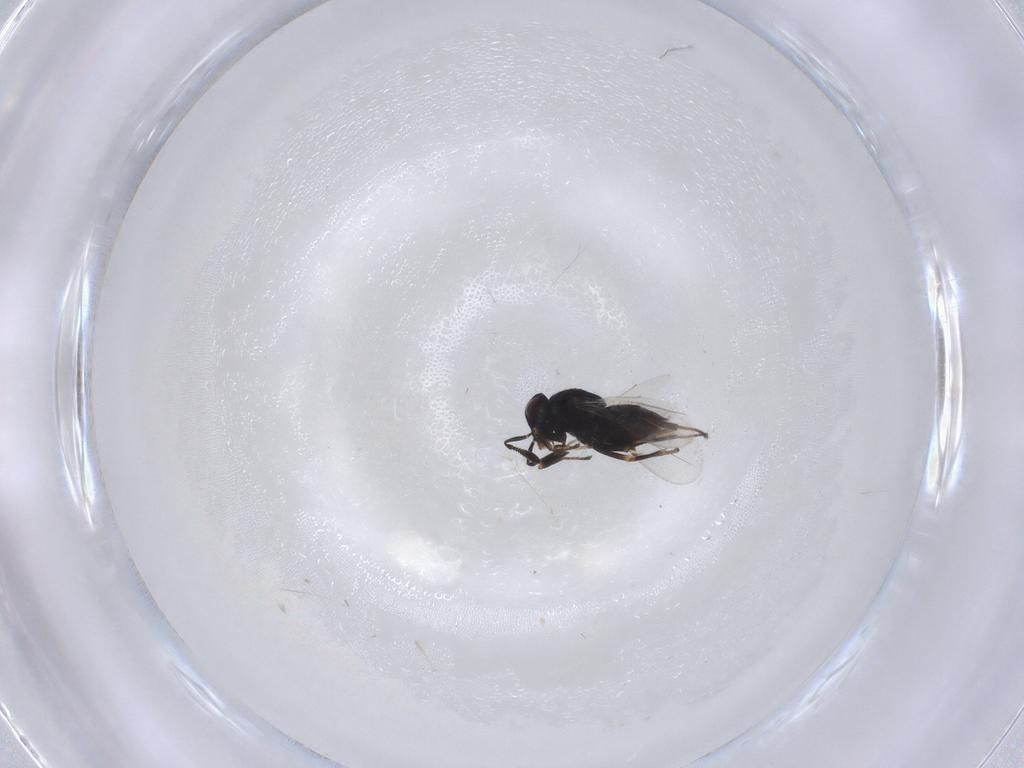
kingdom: Animalia
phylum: Arthropoda
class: Insecta
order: Hymenoptera
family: Encyrtidae
